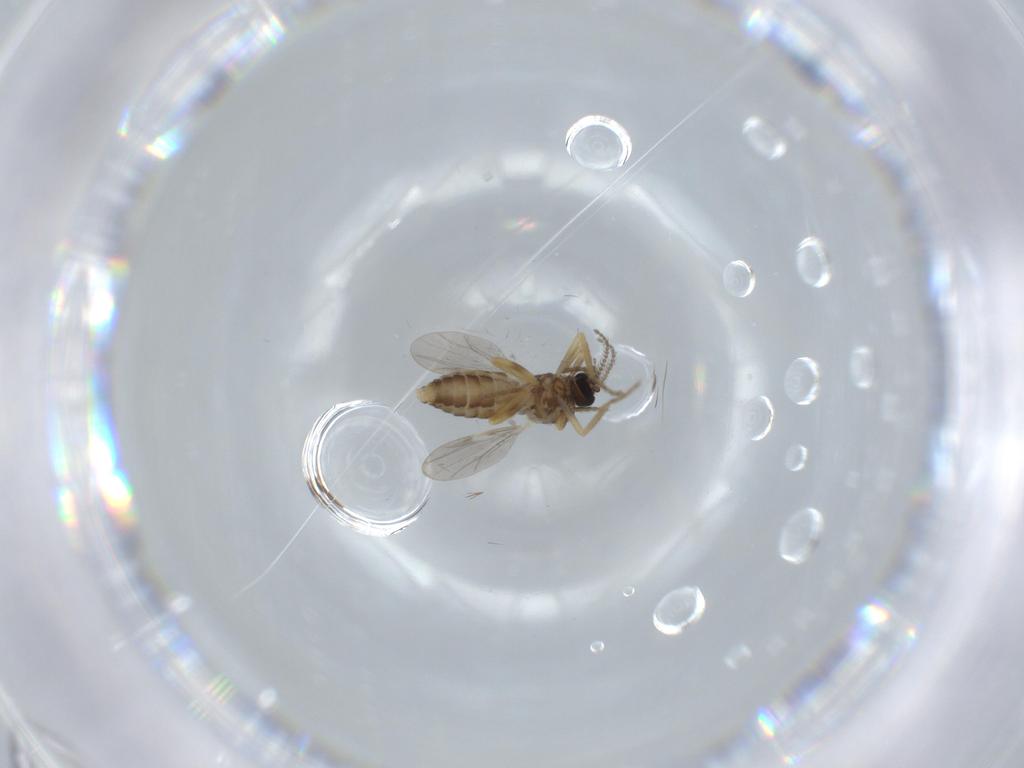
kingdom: Animalia
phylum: Arthropoda
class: Insecta
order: Diptera
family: Ceratopogonidae
